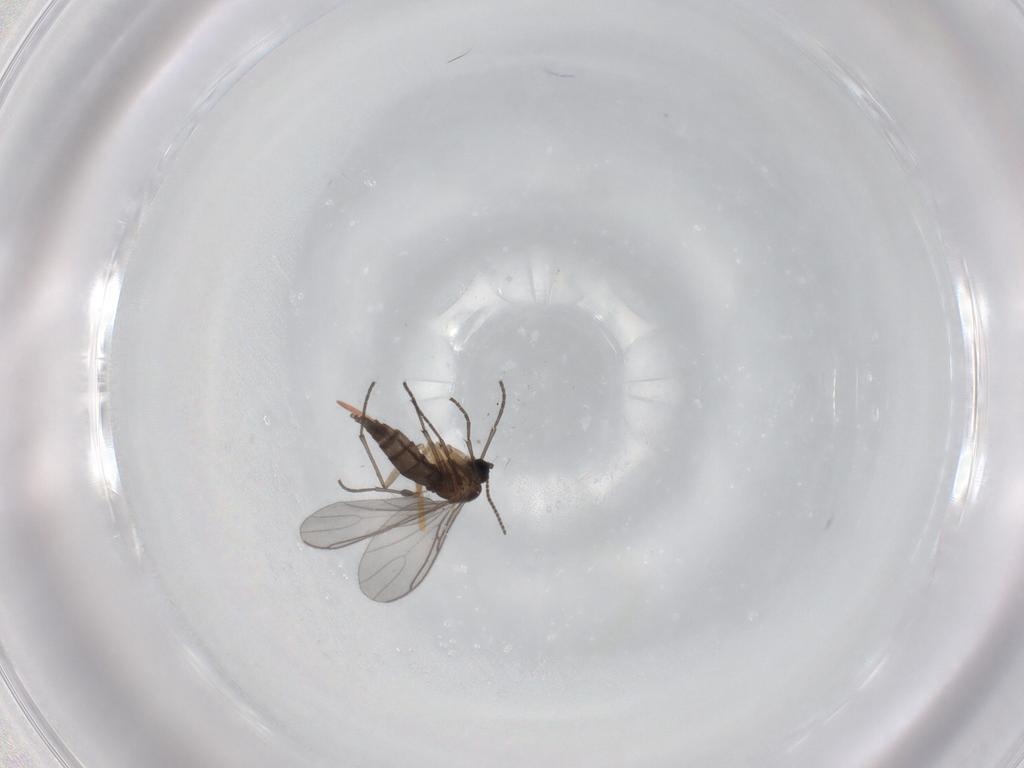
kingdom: Animalia
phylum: Arthropoda
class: Insecta
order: Diptera
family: Sciaridae
